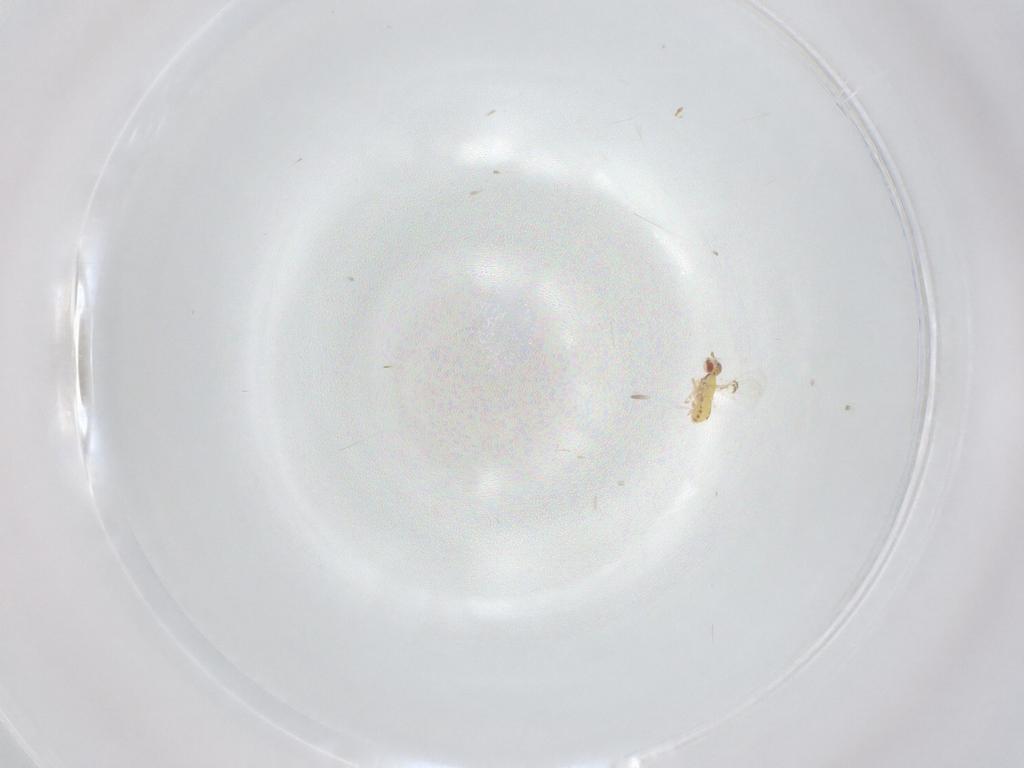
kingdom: Animalia
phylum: Arthropoda
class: Insecta
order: Hymenoptera
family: Trichogrammatidae
